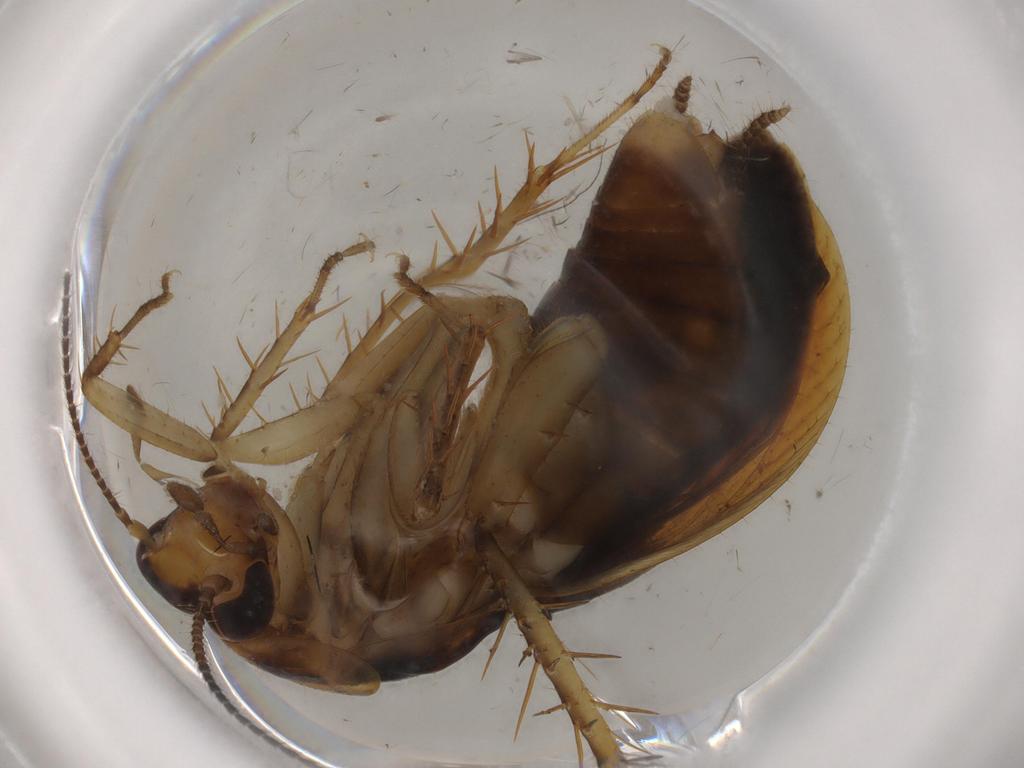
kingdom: Animalia
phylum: Arthropoda
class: Insecta
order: Blattodea
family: Ectobiidae
